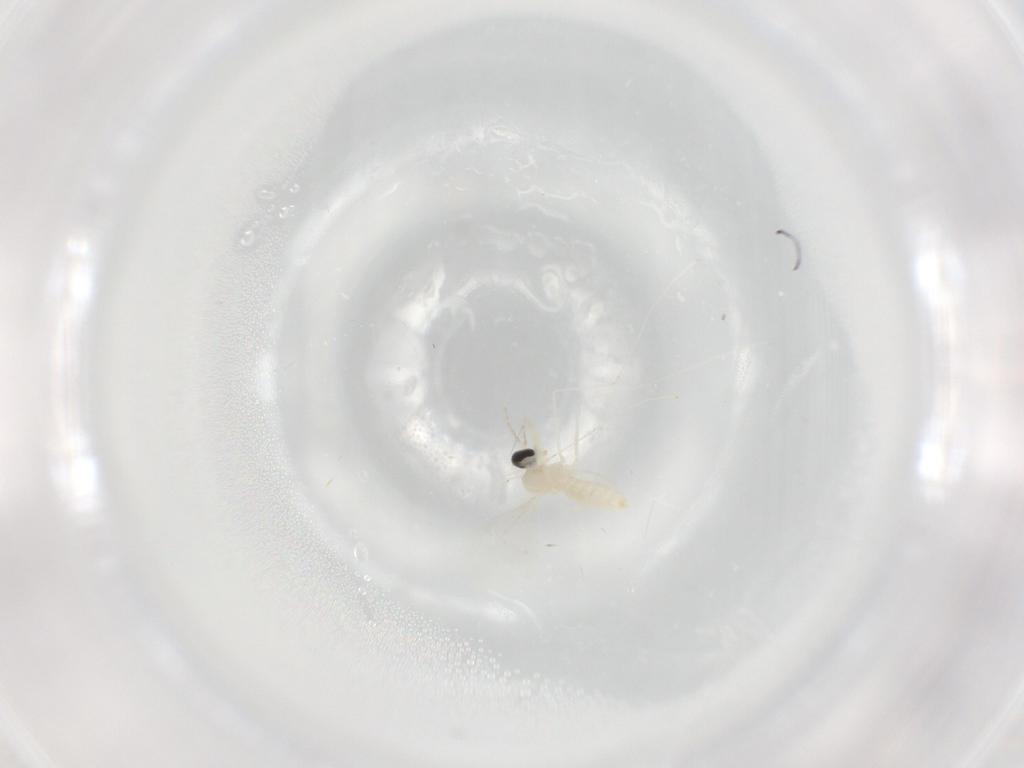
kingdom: Animalia
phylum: Arthropoda
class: Insecta
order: Diptera
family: Cecidomyiidae
